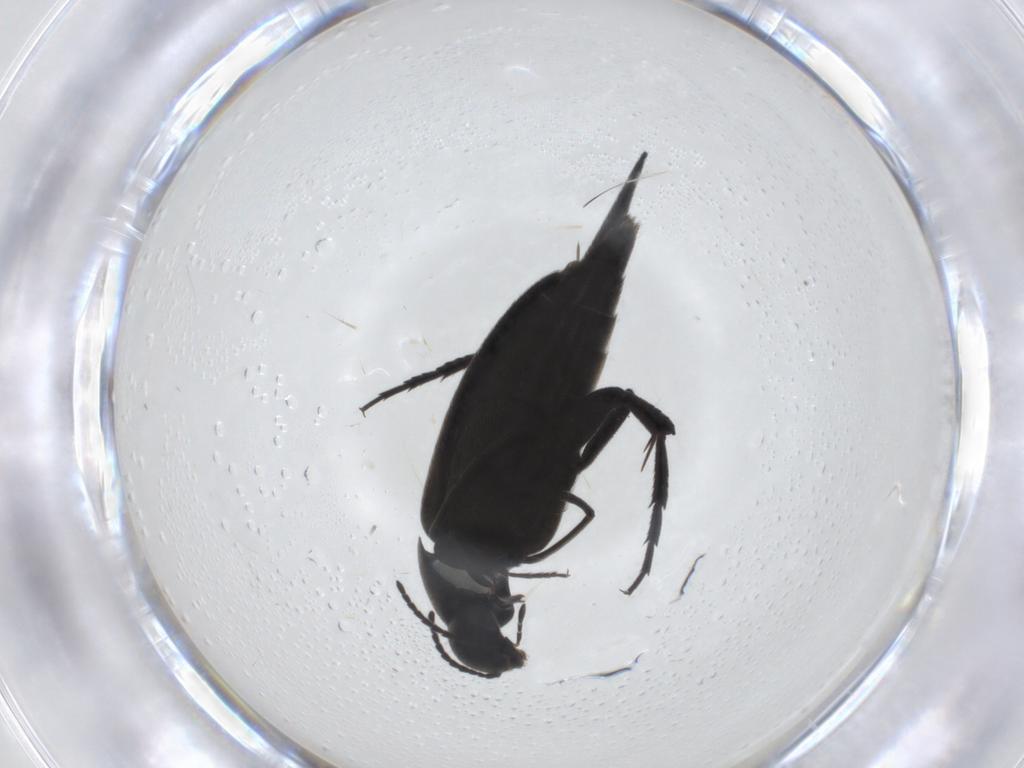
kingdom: Animalia
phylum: Arthropoda
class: Insecta
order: Coleoptera
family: Mordellidae
